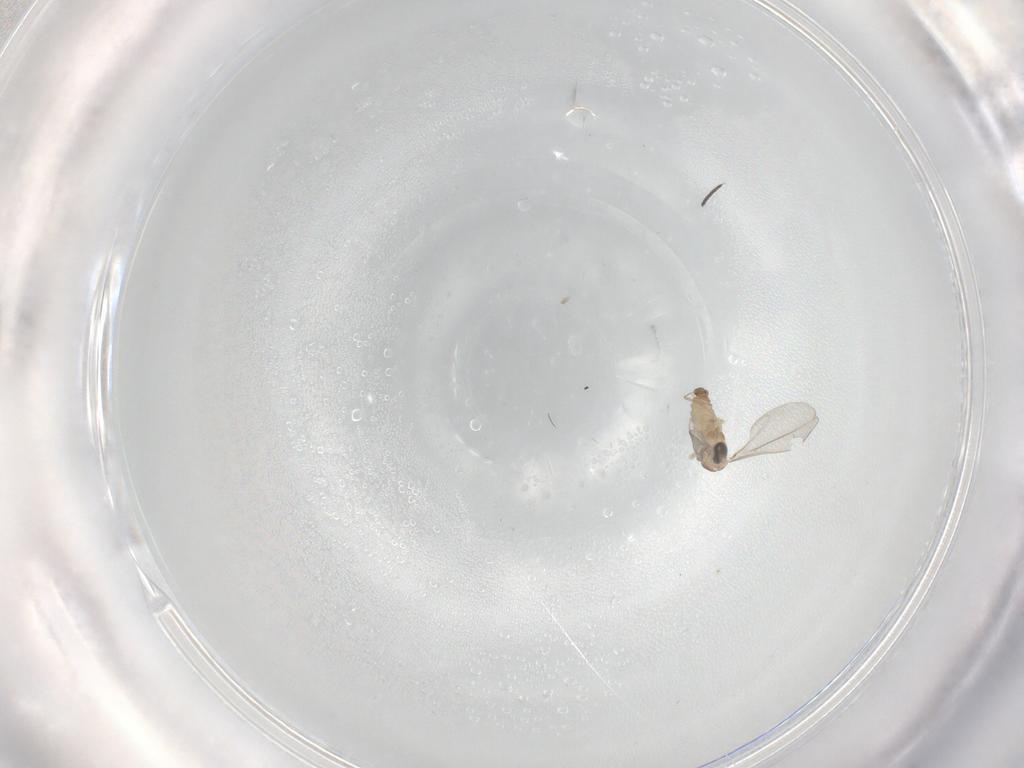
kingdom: Animalia
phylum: Arthropoda
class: Insecta
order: Diptera
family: Cecidomyiidae
